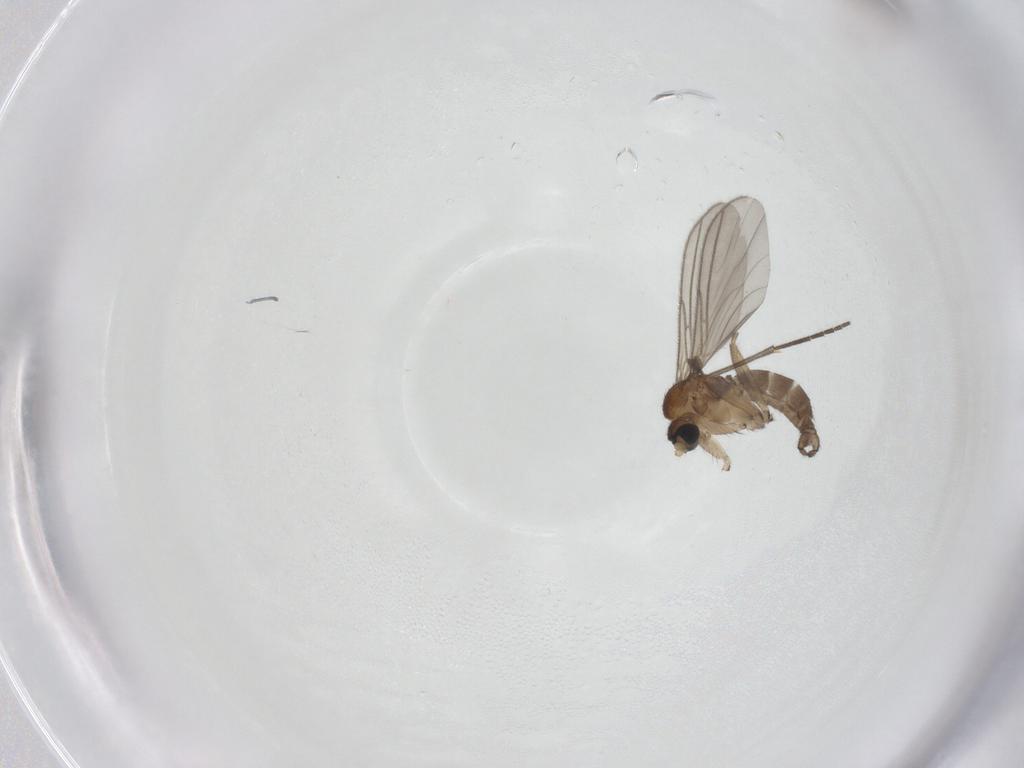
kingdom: Animalia
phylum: Arthropoda
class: Insecta
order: Diptera
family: Sciaridae
